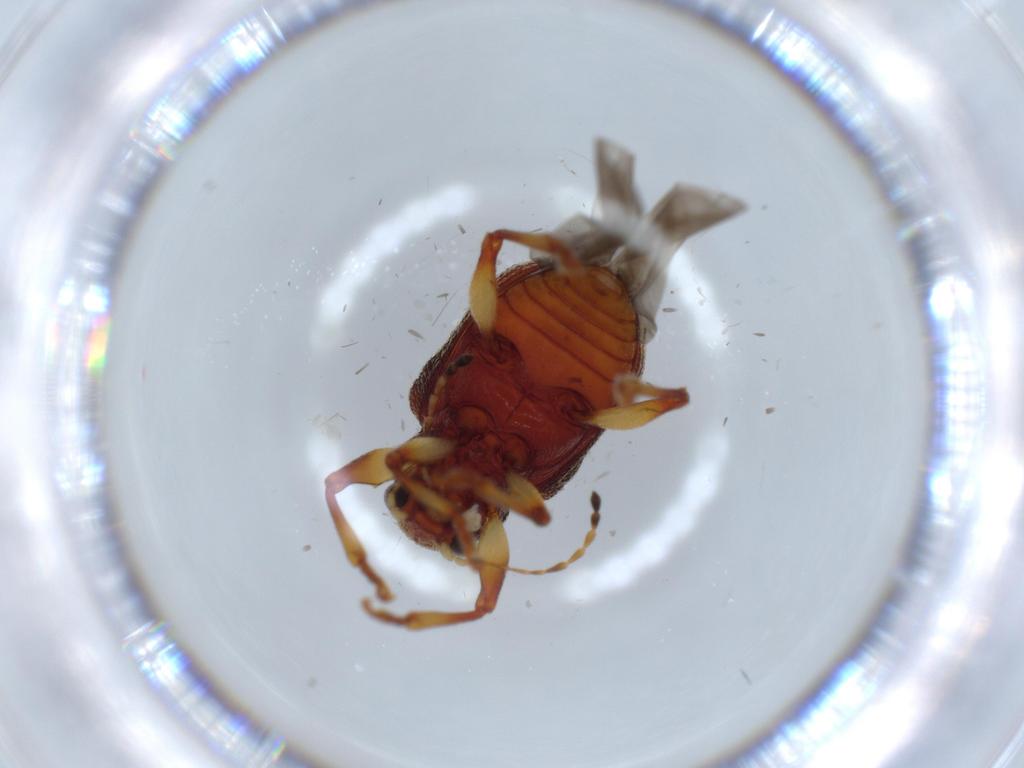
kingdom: Animalia
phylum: Arthropoda
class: Insecta
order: Coleoptera
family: Chrysomelidae
